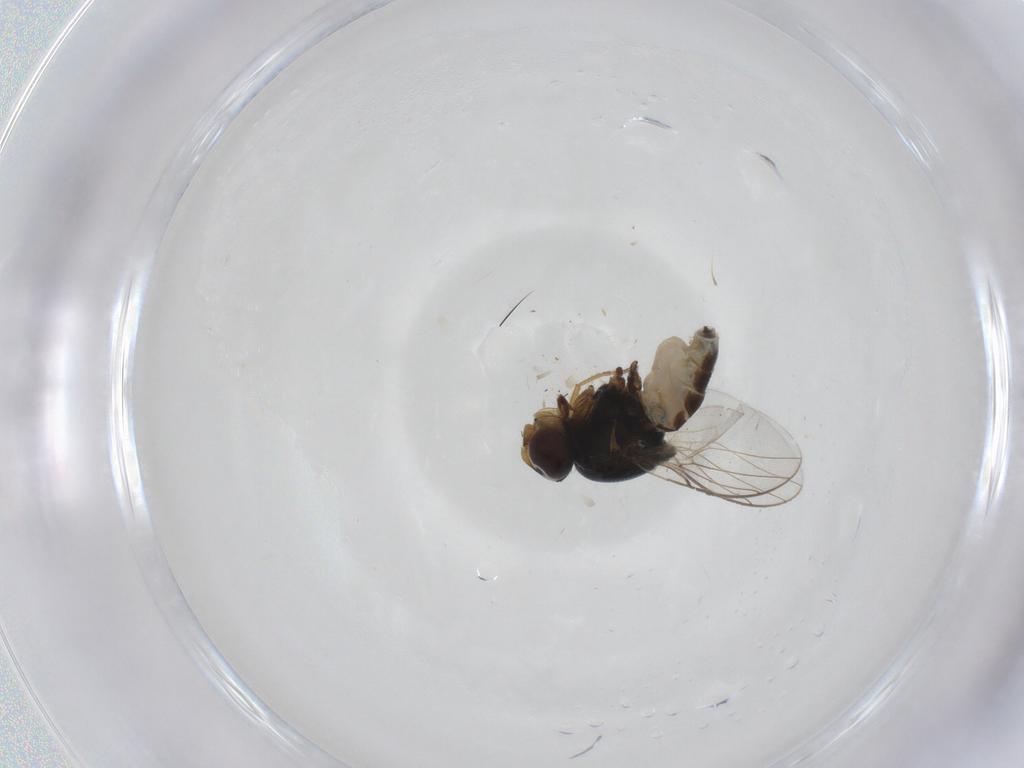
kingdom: Animalia
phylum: Arthropoda
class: Insecta
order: Diptera
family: Chloropidae
